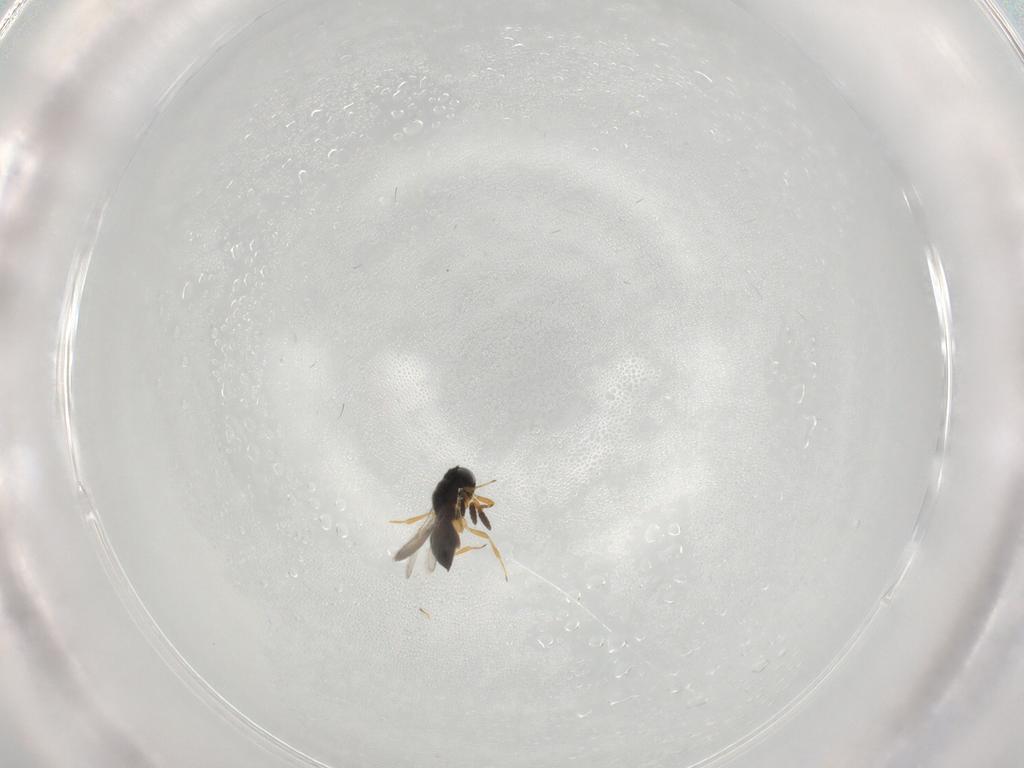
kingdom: Animalia
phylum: Arthropoda
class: Insecta
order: Hymenoptera
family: Scelionidae
